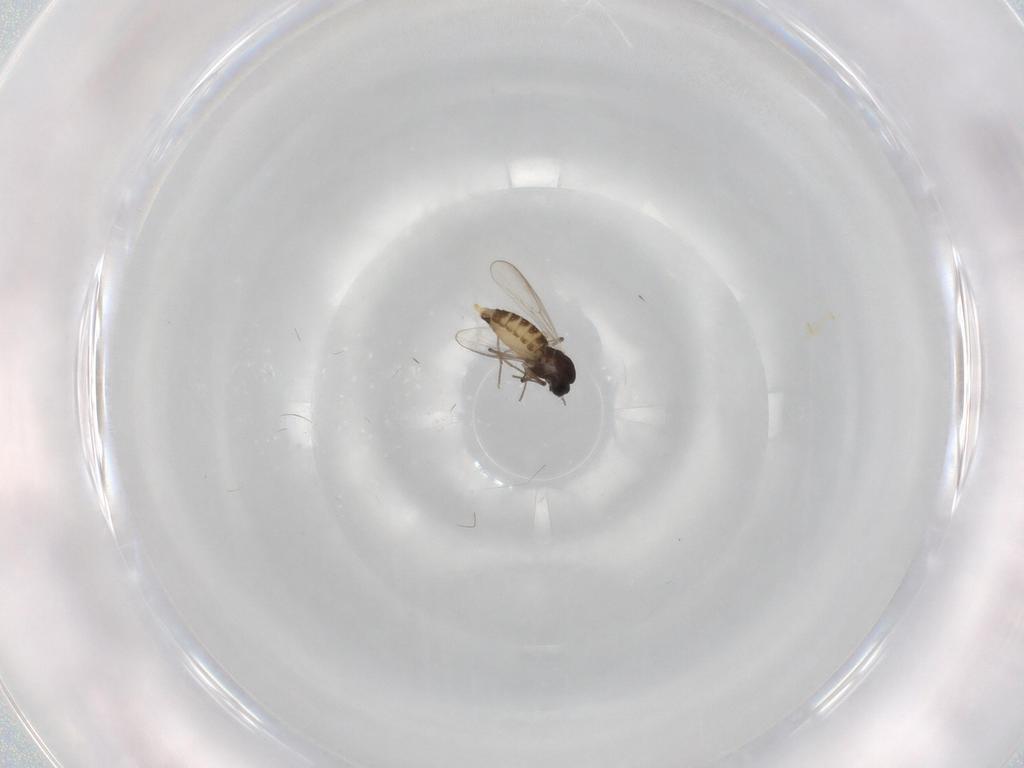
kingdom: Animalia
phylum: Arthropoda
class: Insecta
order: Diptera
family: Chironomidae
